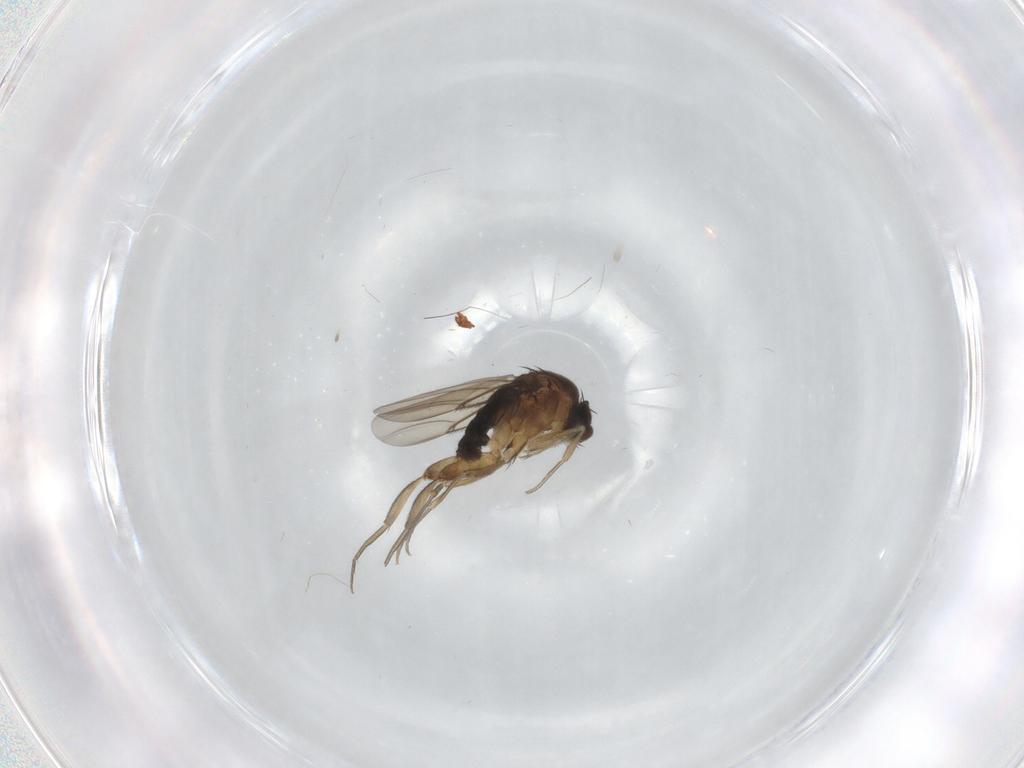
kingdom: Animalia
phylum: Arthropoda
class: Insecta
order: Diptera
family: Phoridae
